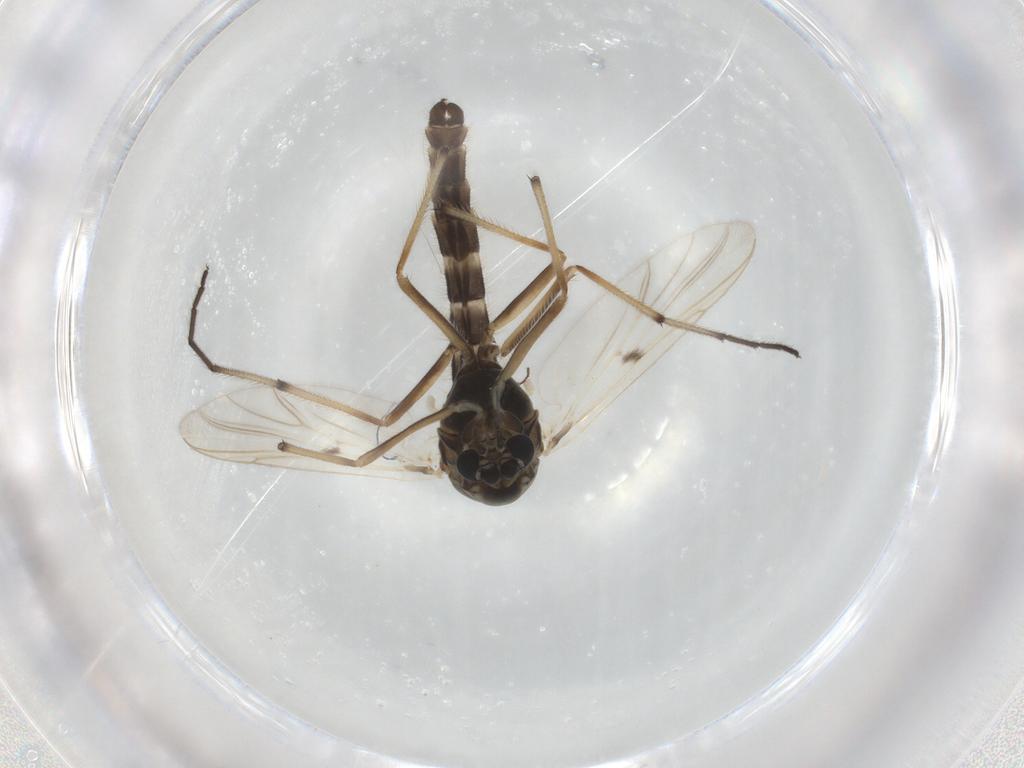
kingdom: Animalia
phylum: Arthropoda
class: Insecta
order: Diptera
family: Chironomidae
